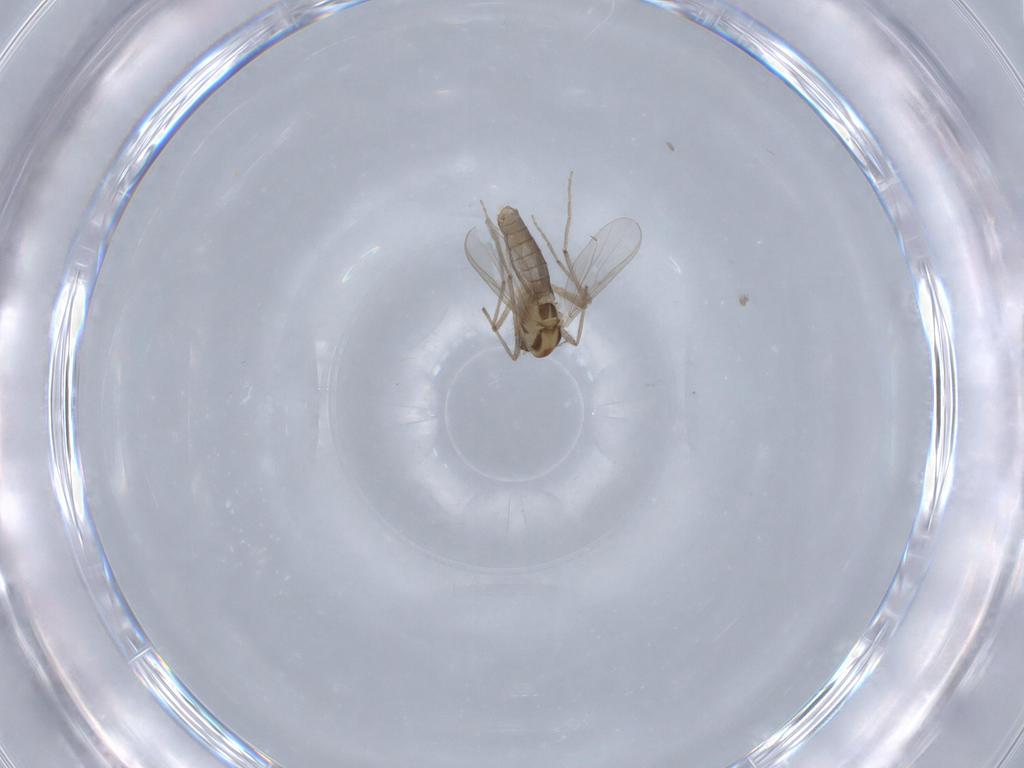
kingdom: Animalia
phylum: Arthropoda
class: Insecta
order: Diptera
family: Chironomidae
